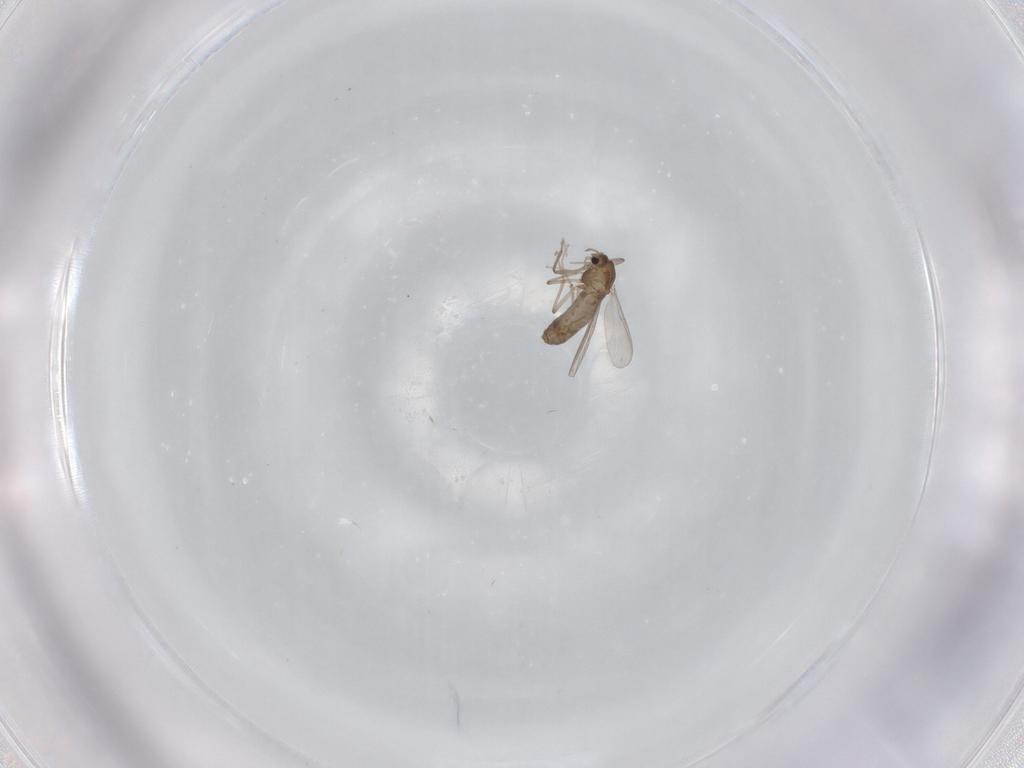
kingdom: Animalia
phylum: Arthropoda
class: Insecta
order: Diptera
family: Chironomidae
